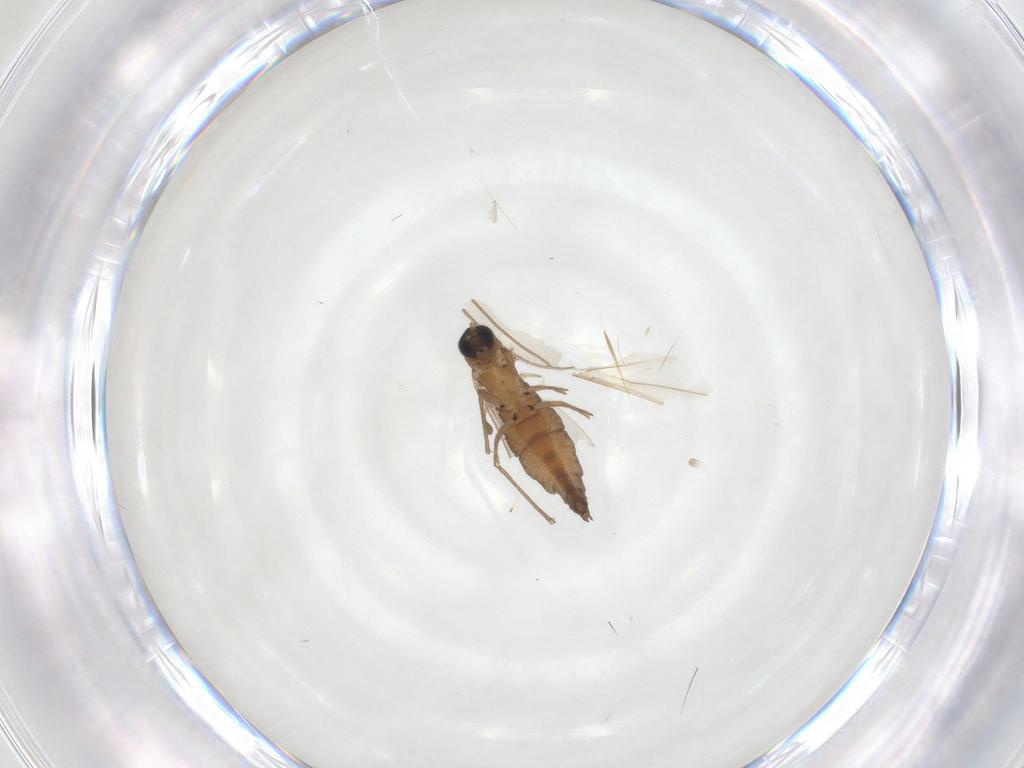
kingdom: Animalia
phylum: Arthropoda
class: Insecta
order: Diptera
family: Sciaridae
